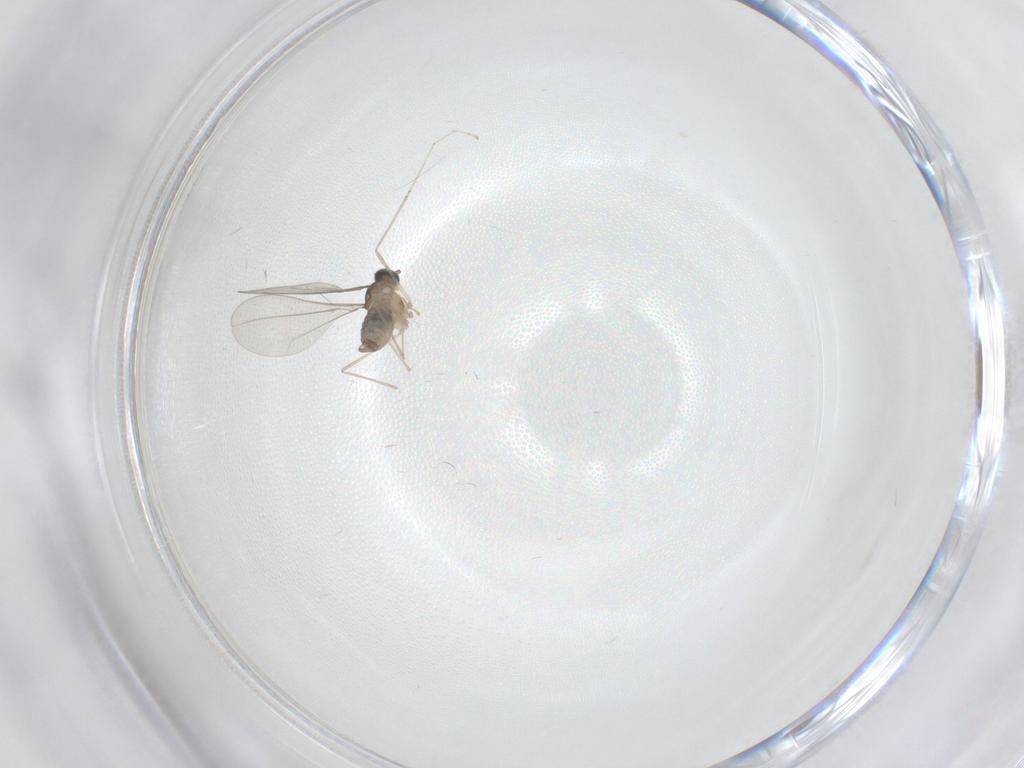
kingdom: Animalia
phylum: Arthropoda
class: Insecta
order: Diptera
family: Cecidomyiidae
